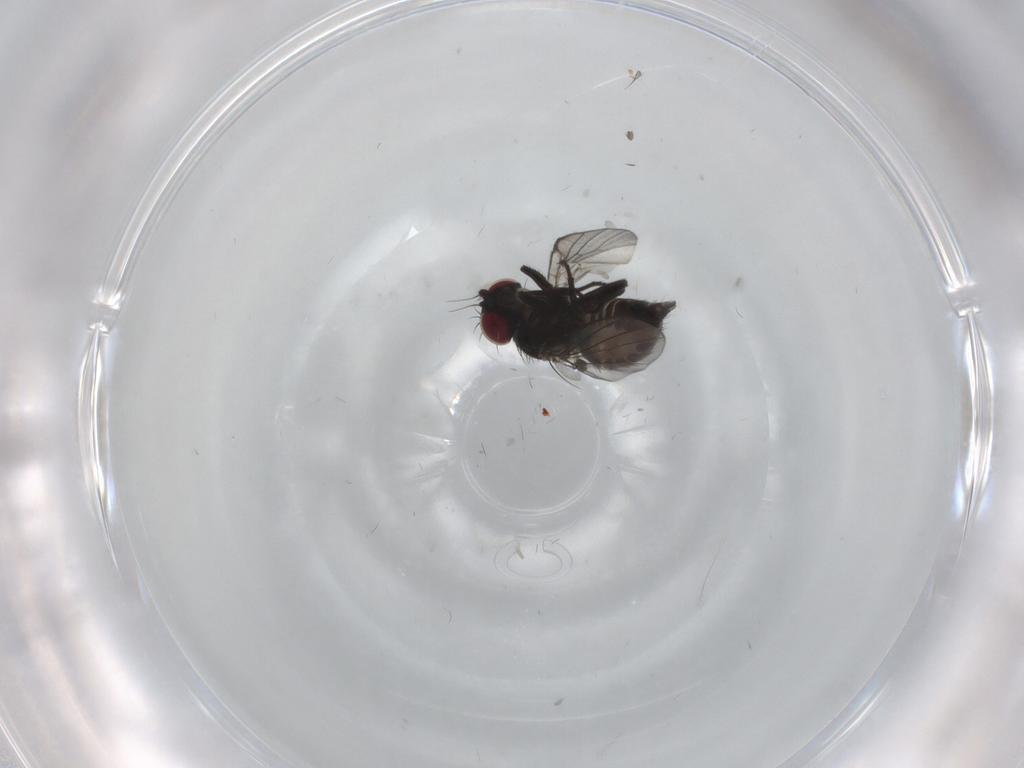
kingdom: Animalia
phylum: Arthropoda
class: Insecta
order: Diptera
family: Agromyzidae
